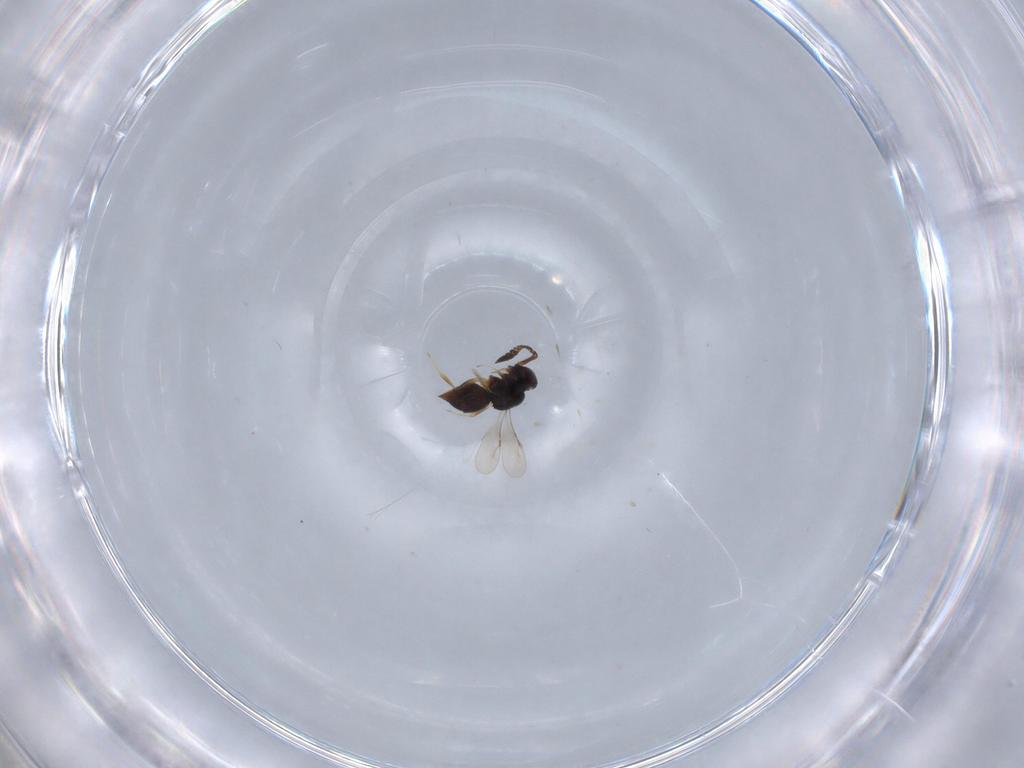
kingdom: Animalia
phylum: Arthropoda
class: Insecta
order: Hymenoptera
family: Ceraphronidae
